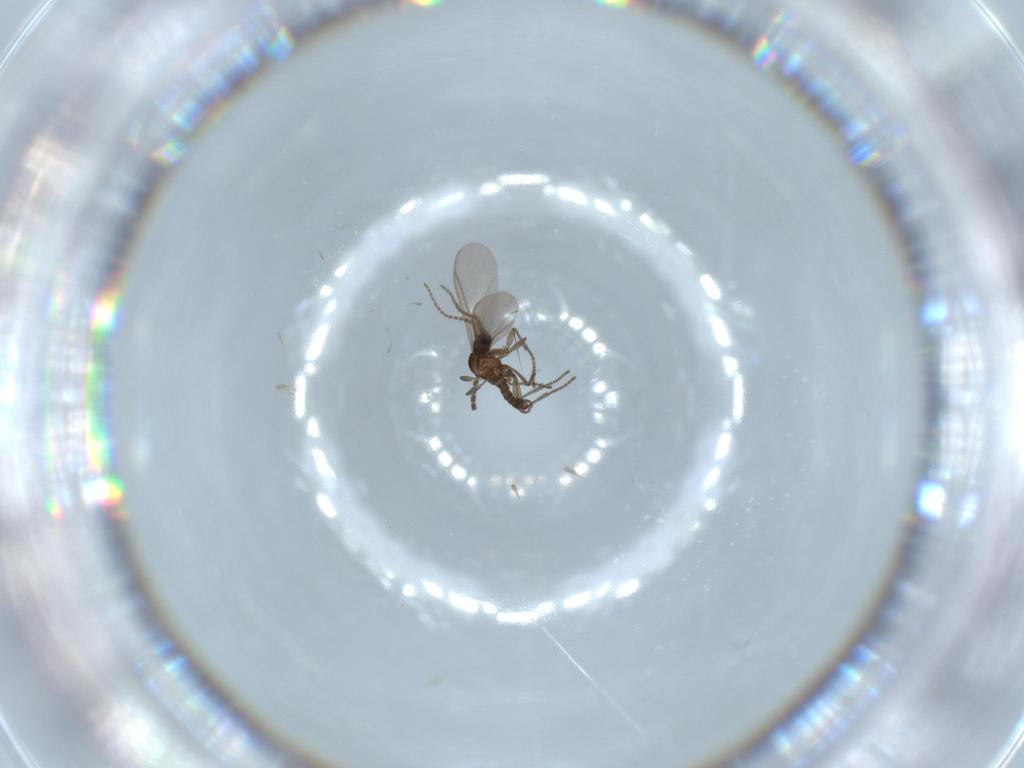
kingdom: Animalia
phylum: Arthropoda
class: Insecta
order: Diptera
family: Sciaridae
